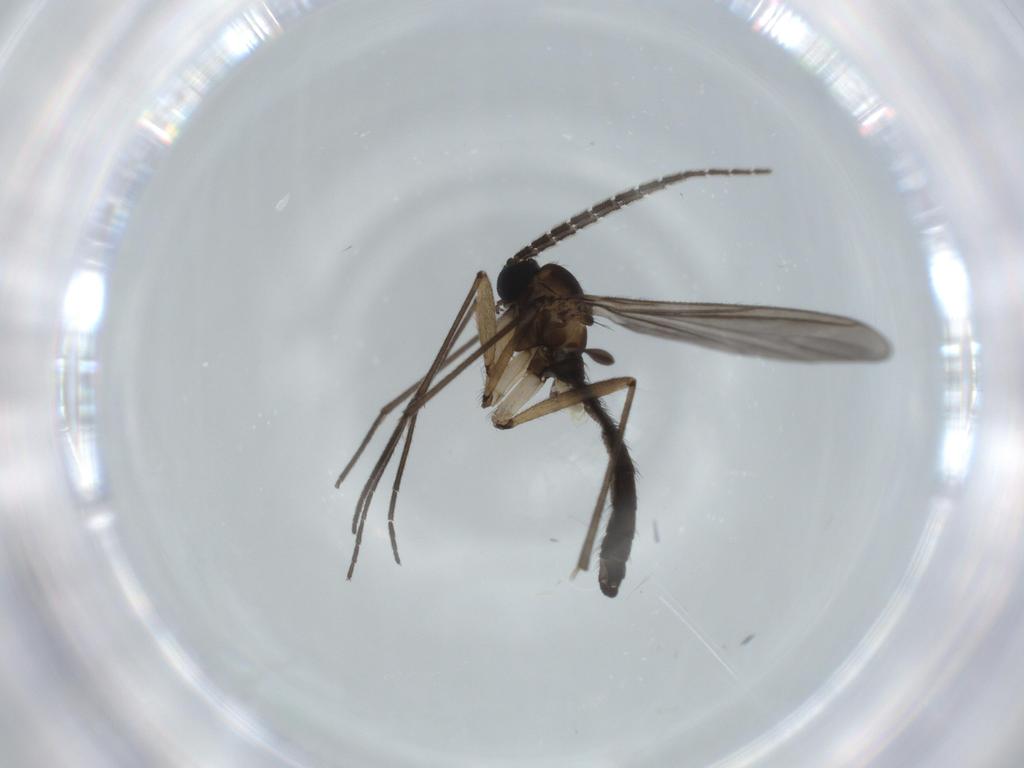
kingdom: Animalia
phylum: Arthropoda
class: Insecta
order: Diptera
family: Sciaridae
